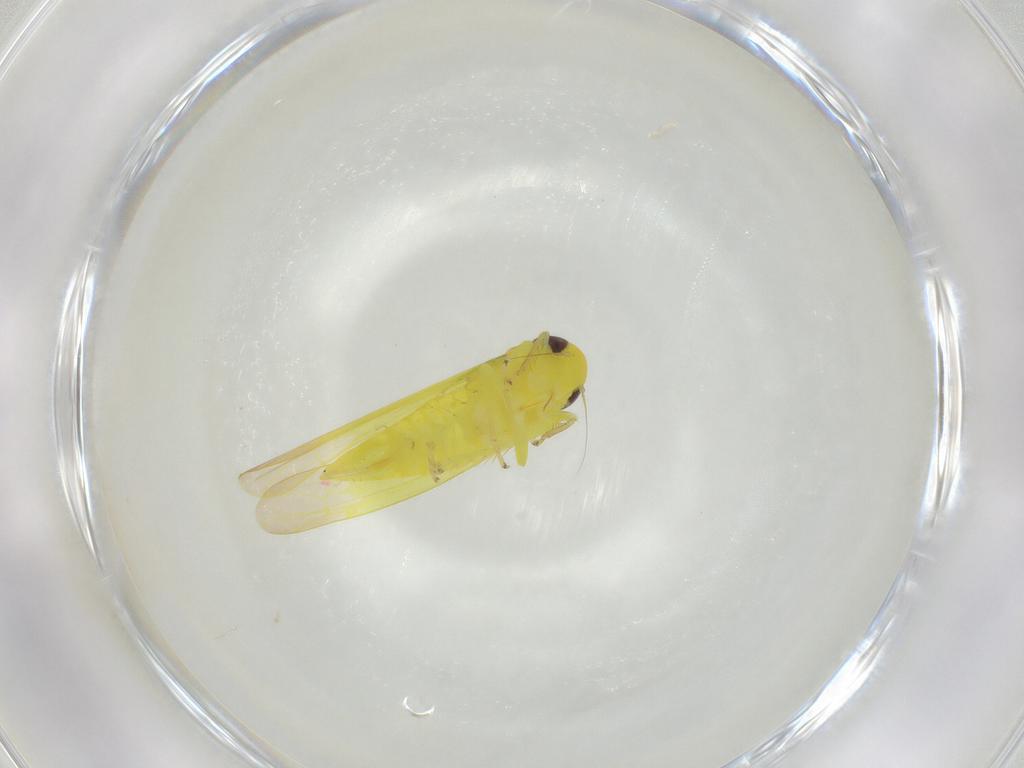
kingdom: Animalia
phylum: Arthropoda
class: Insecta
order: Hemiptera
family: Cicadellidae
